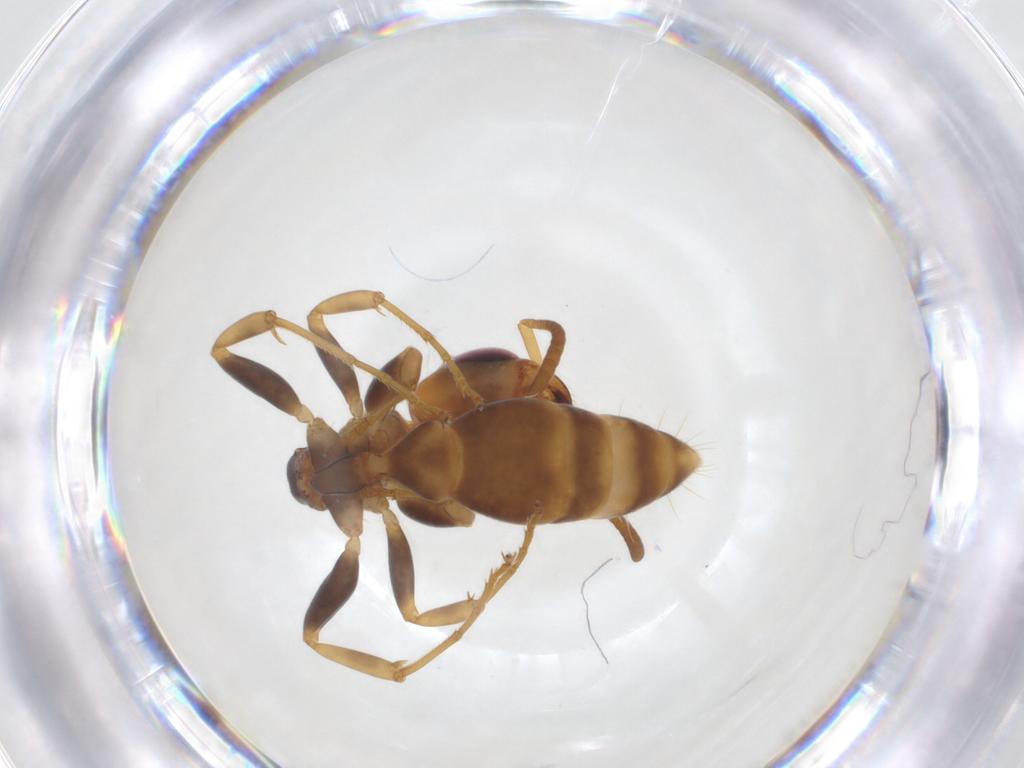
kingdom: Animalia
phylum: Arthropoda
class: Insecta
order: Hymenoptera
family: Formicidae
